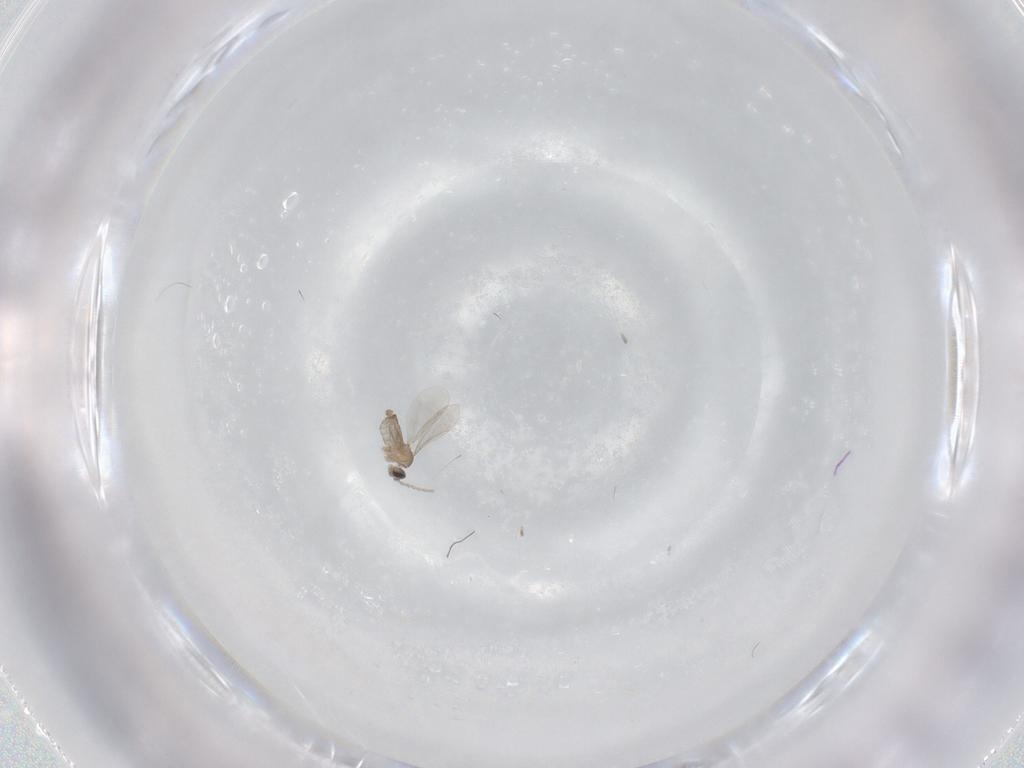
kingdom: Animalia
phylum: Arthropoda
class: Insecta
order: Diptera
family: Cecidomyiidae
